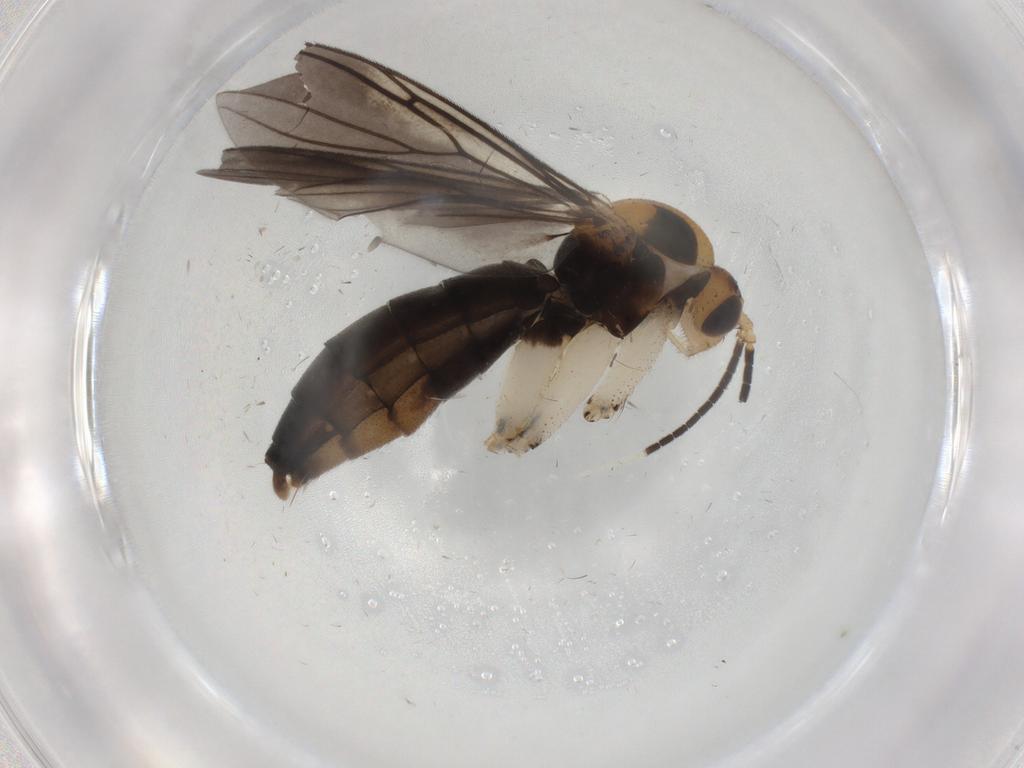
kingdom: Animalia
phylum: Arthropoda
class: Insecta
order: Diptera
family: Mycetophilidae
